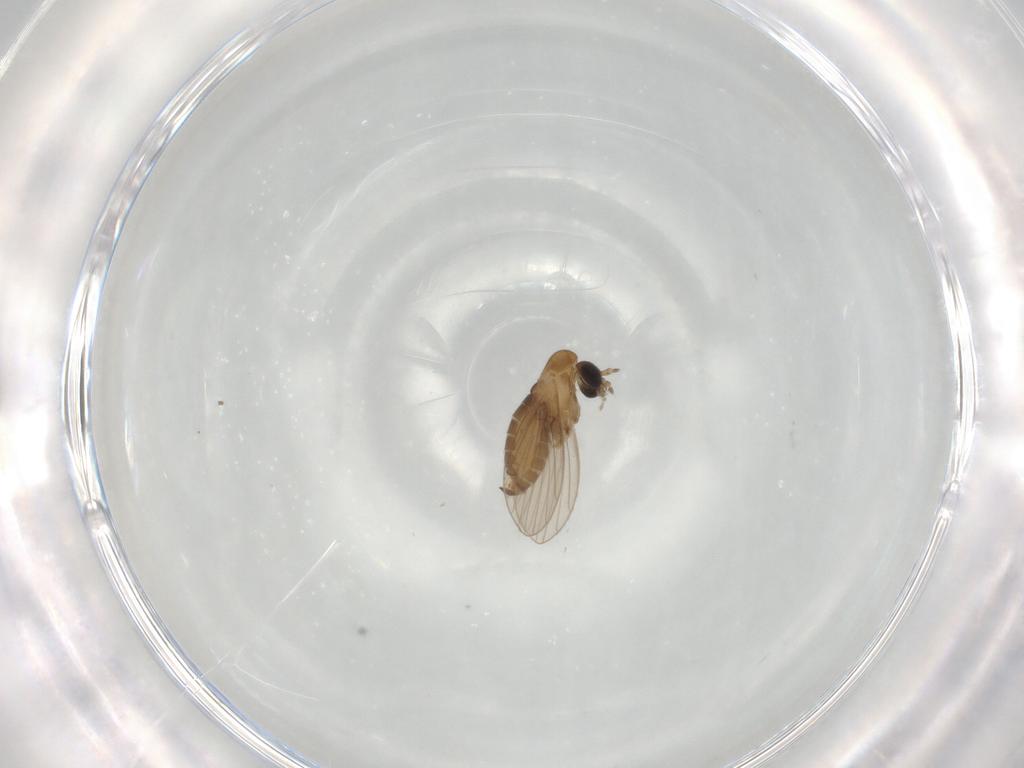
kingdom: Animalia
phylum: Arthropoda
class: Insecta
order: Diptera
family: Psychodidae
